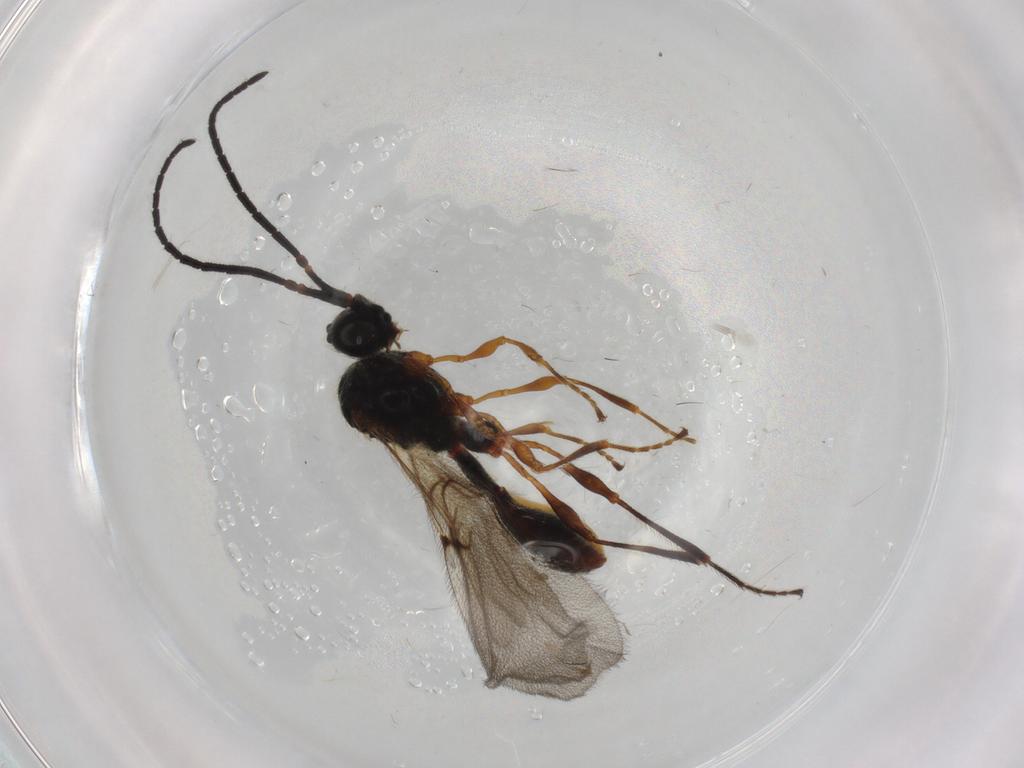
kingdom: Animalia
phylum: Arthropoda
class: Insecta
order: Hymenoptera
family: Diapriidae
